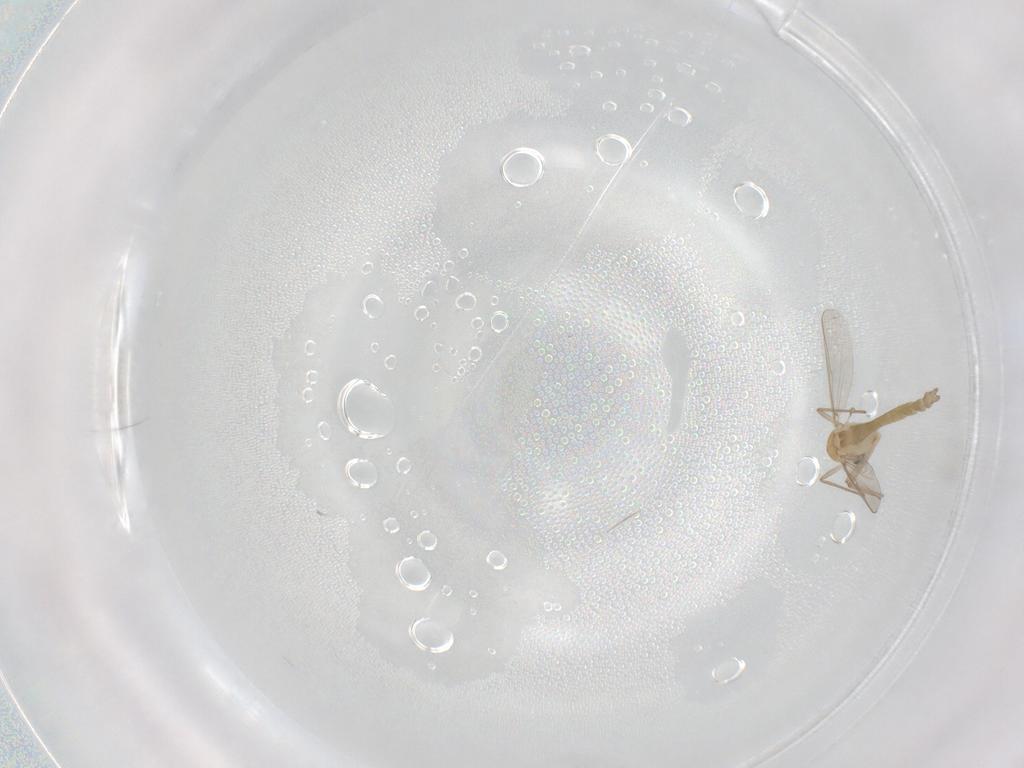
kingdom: Animalia
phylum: Arthropoda
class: Insecta
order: Diptera
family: Chironomidae
